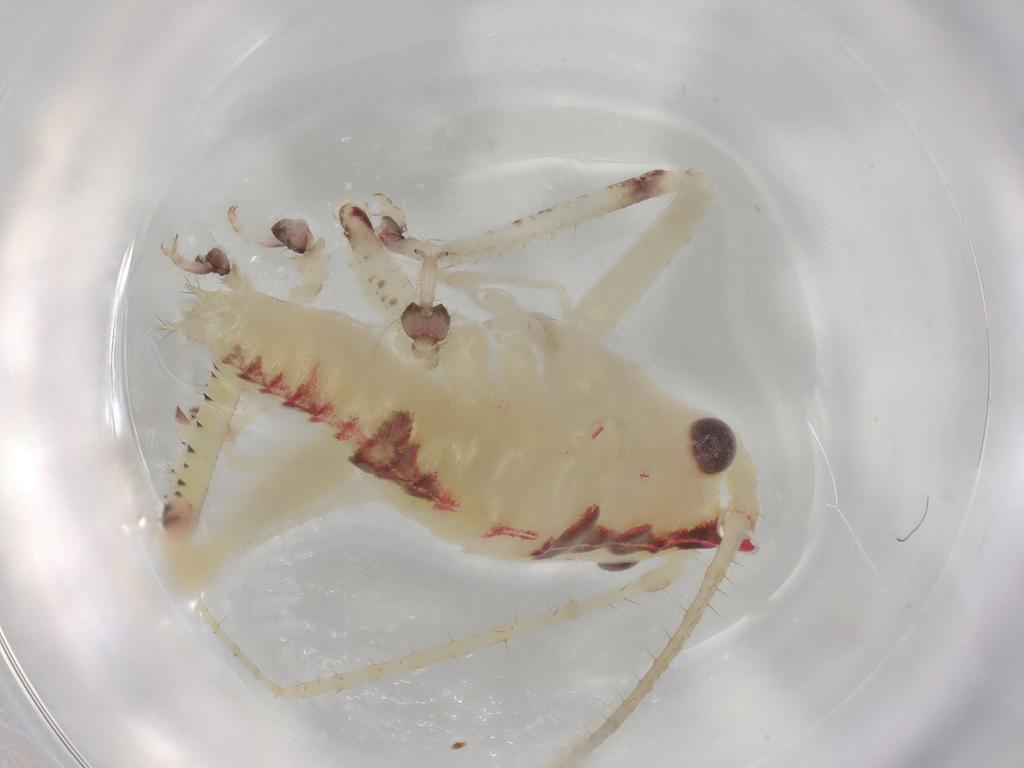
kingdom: Animalia
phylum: Arthropoda
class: Insecta
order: Orthoptera
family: Tettigoniidae
